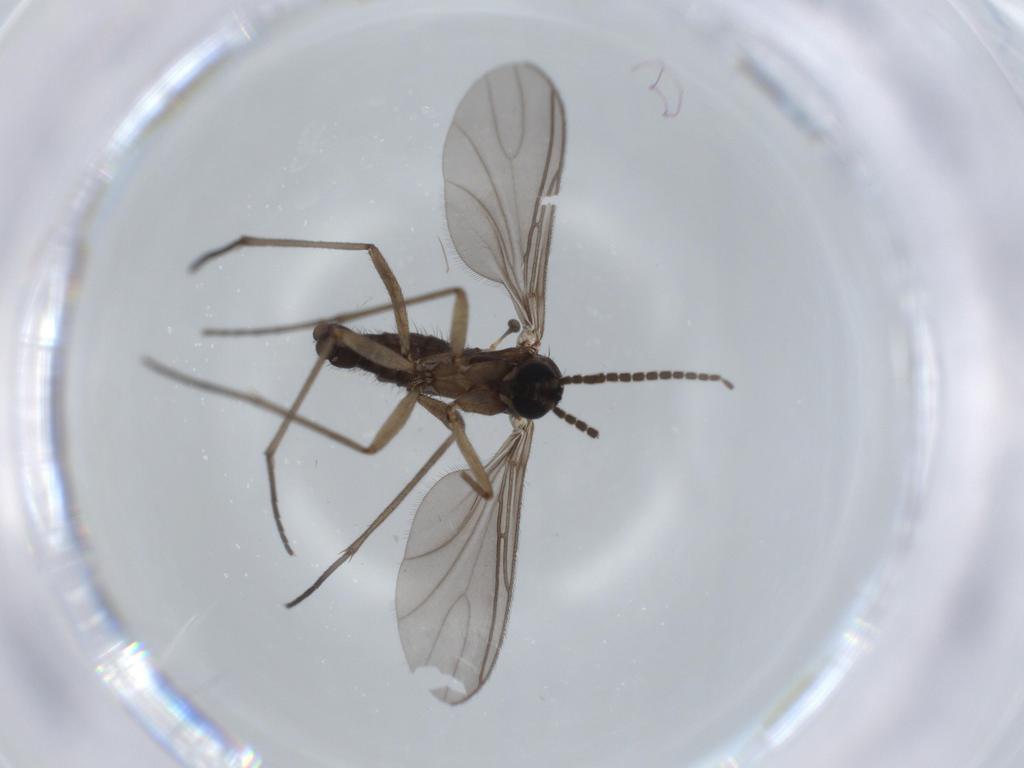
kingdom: Animalia
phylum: Arthropoda
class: Insecta
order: Diptera
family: Sciaridae
